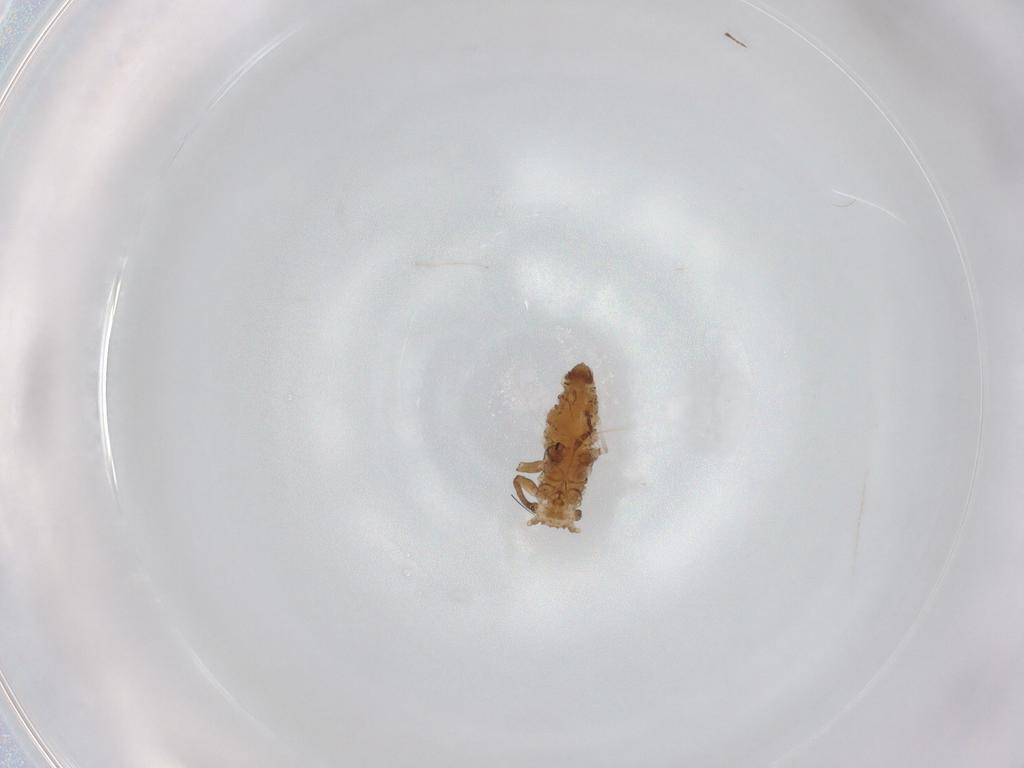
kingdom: Animalia
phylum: Arthropoda
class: Insecta
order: Hemiptera
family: Aphididae
